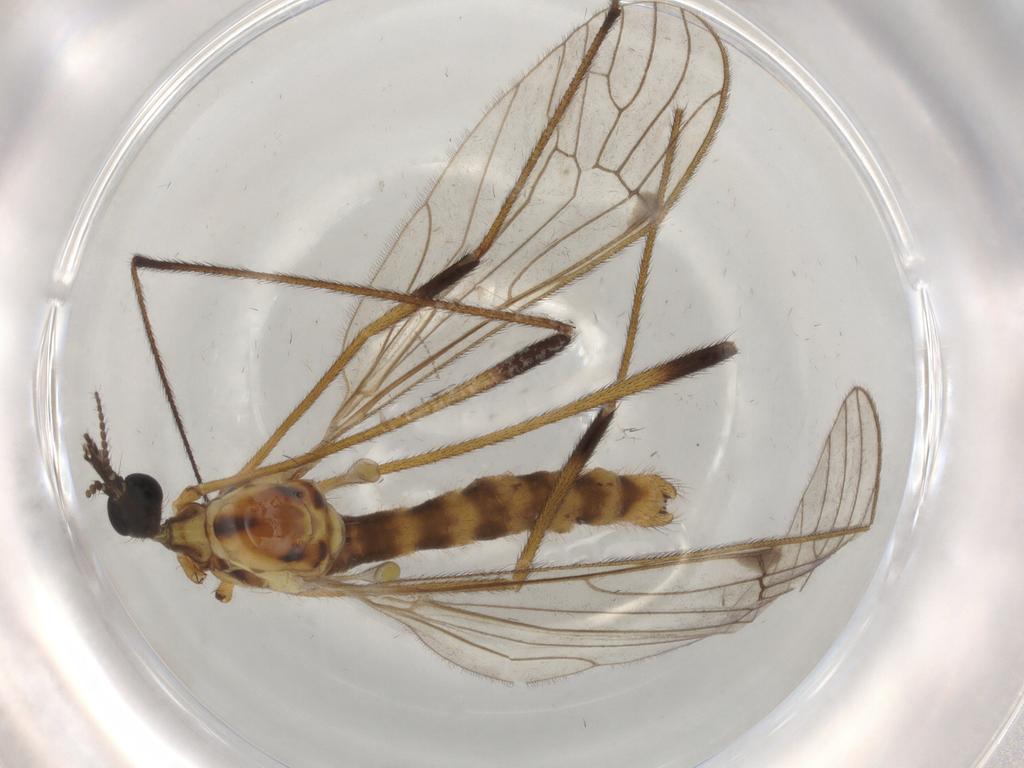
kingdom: Animalia
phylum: Arthropoda
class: Insecta
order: Diptera
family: Limoniidae
